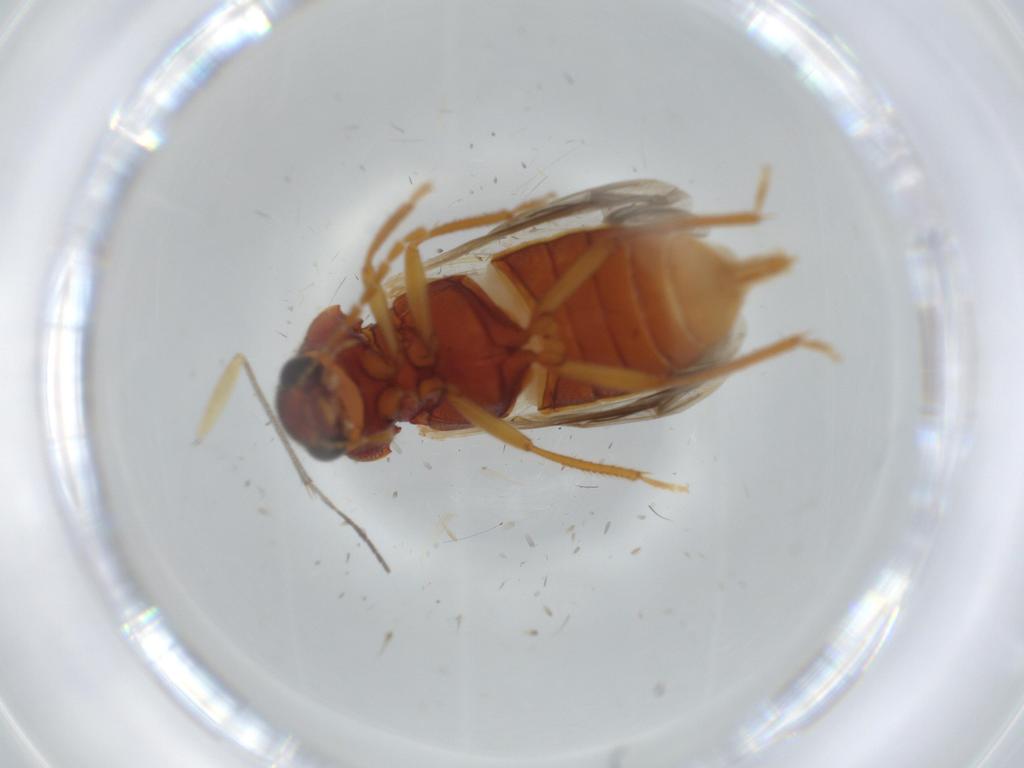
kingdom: Animalia
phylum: Arthropoda
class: Insecta
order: Coleoptera
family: Ptilodactylidae
